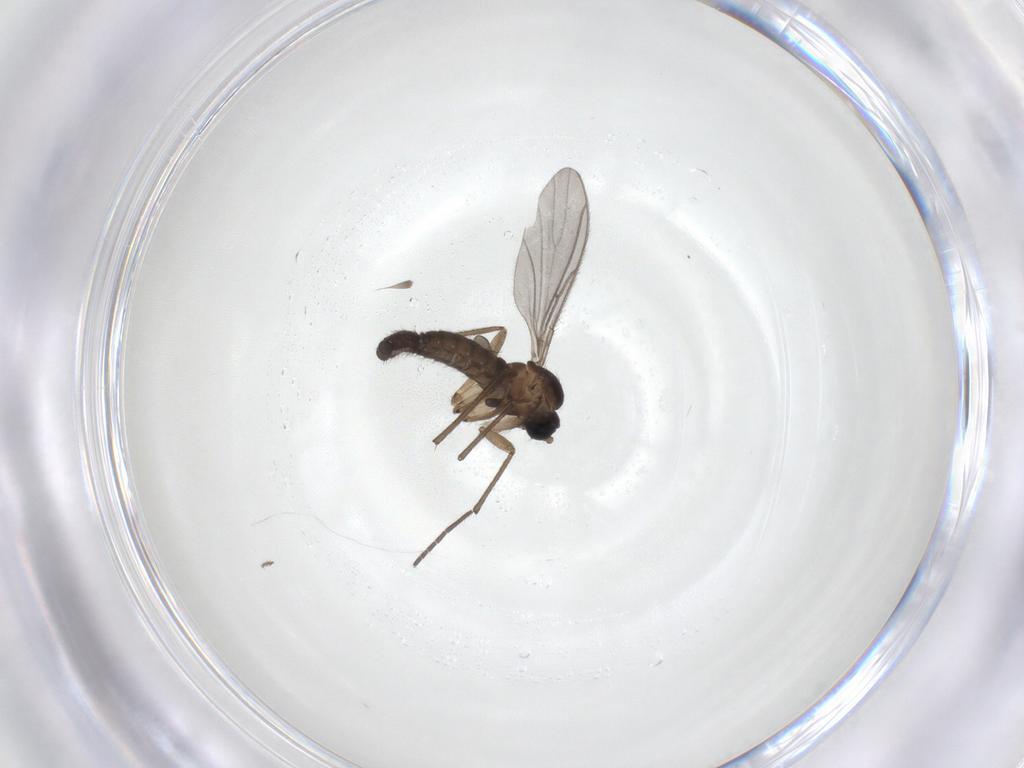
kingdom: Animalia
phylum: Arthropoda
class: Insecta
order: Diptera
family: Sciaridae
